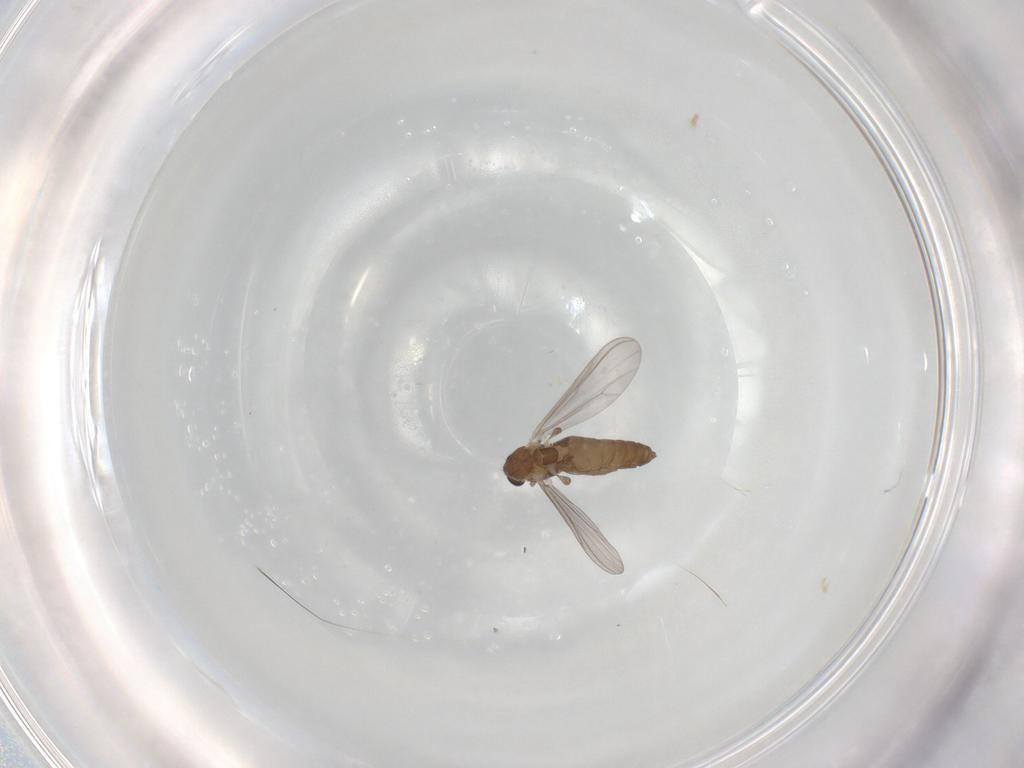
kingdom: Animalia
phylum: Arthropoda
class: Insecta
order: Diptera
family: Chironomidae
